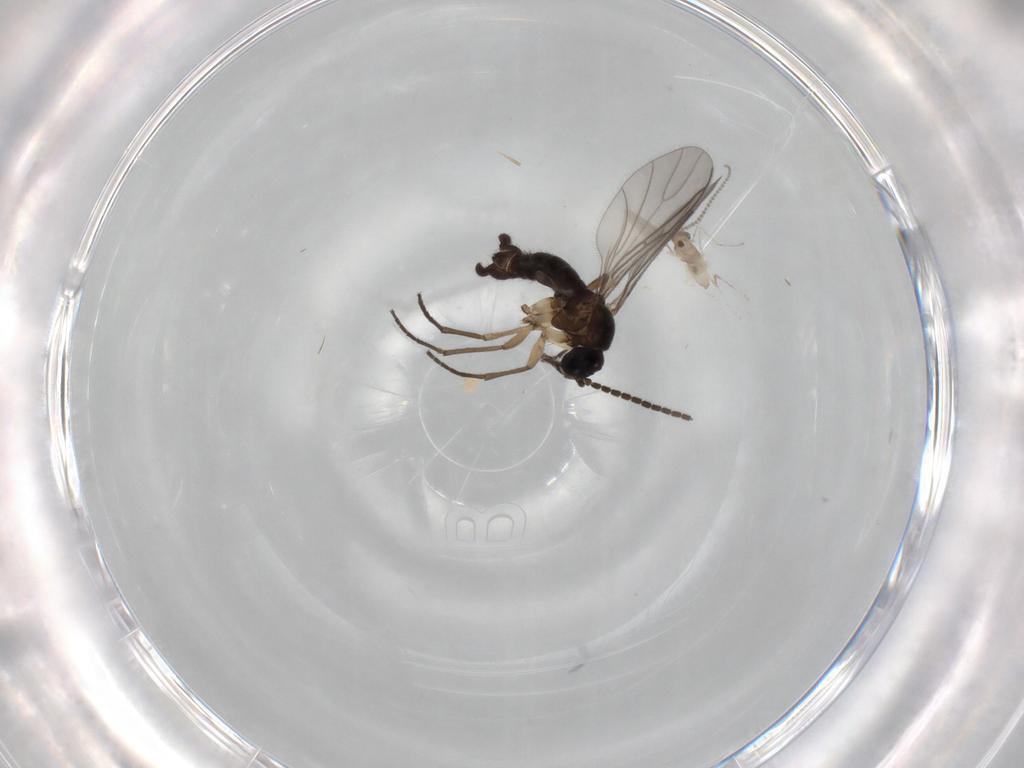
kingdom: Animalia
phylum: Arthropoda
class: Insecta
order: Diptera
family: Sciaridae
